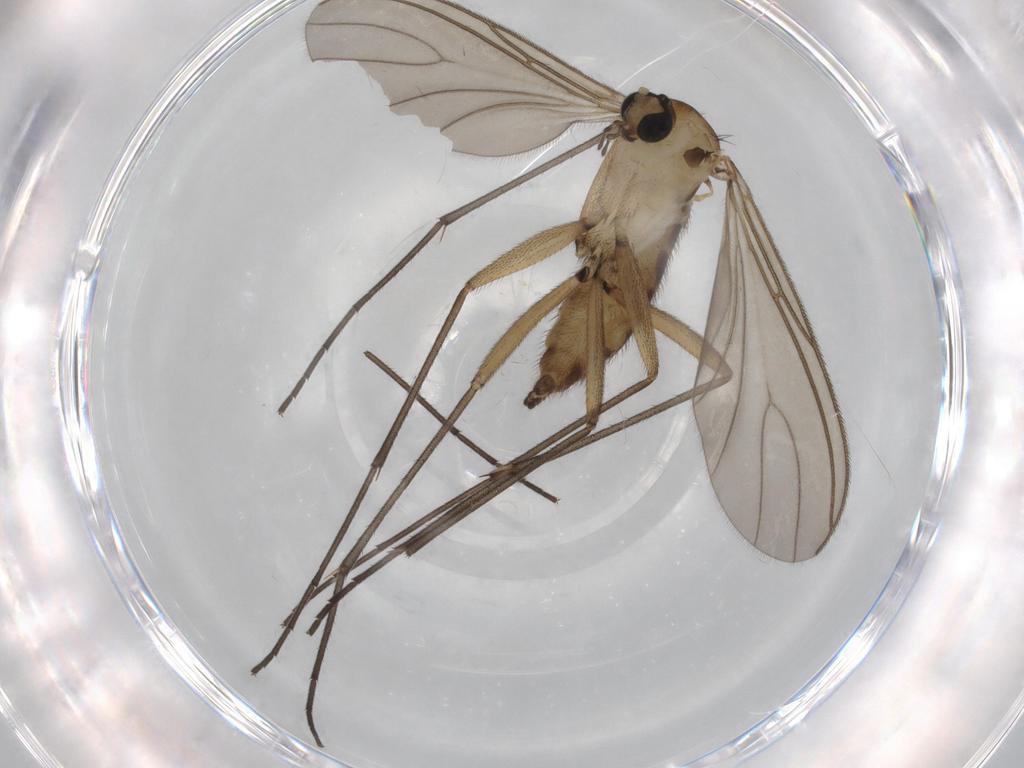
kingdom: Animalia
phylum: Arthropoda
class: Insecta
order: Diptera
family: Sciaridae
